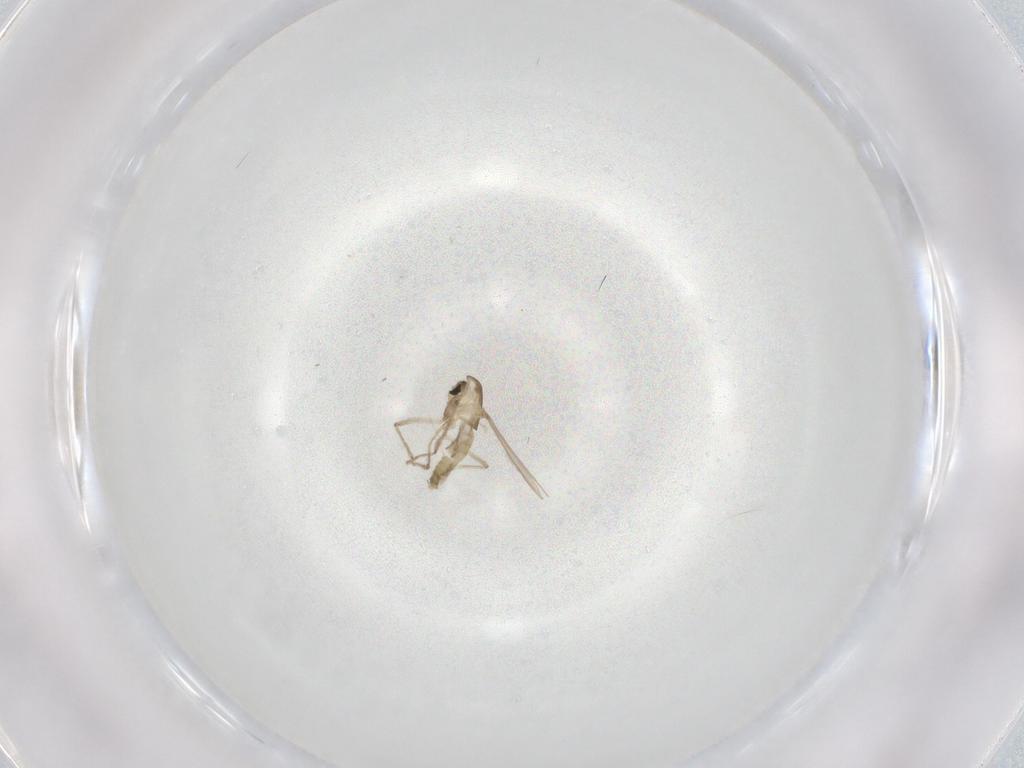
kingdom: Animalia
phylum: Arthropoda
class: Insecta
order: Diptera
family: Chironomidae
